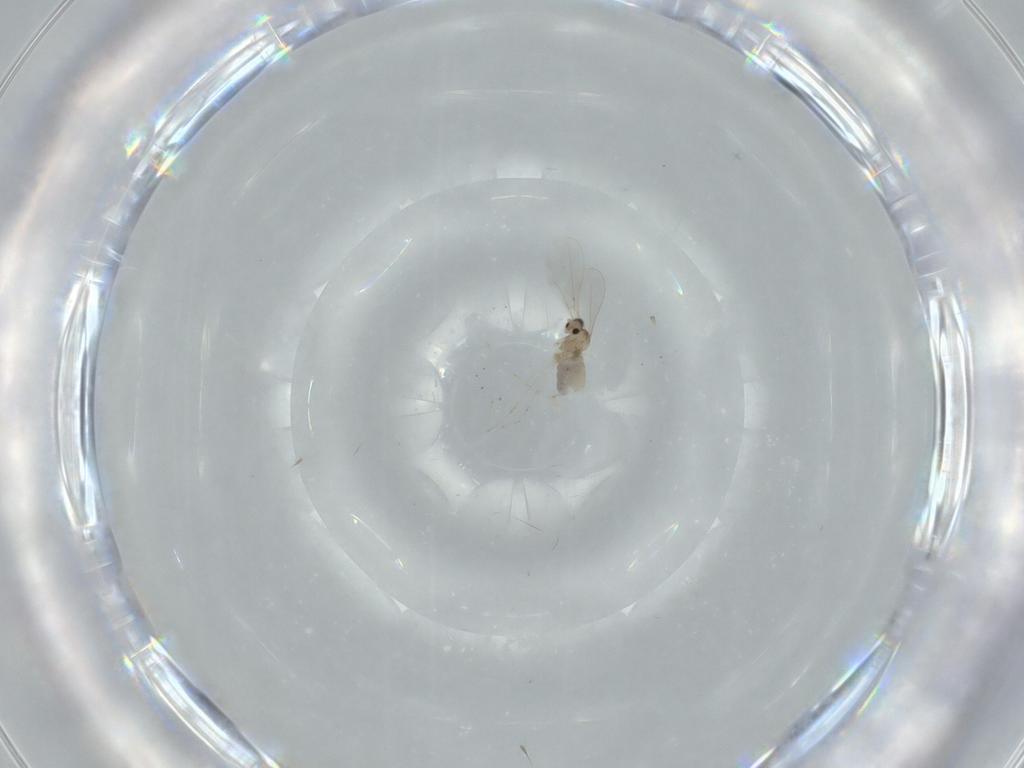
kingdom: Animalia
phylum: Arthropoda
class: Insecta
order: Diptera
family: Cecidomyiidae
